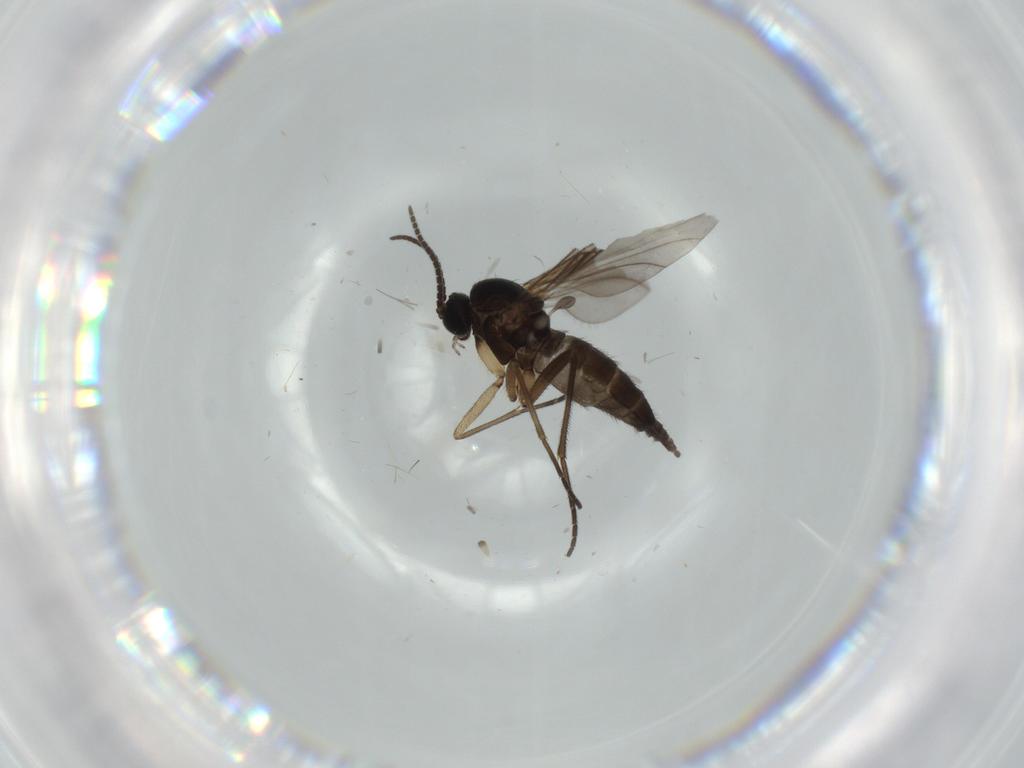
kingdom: Animalia
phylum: Arthropoda
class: Insecta
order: Diptera
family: Sciaridae
